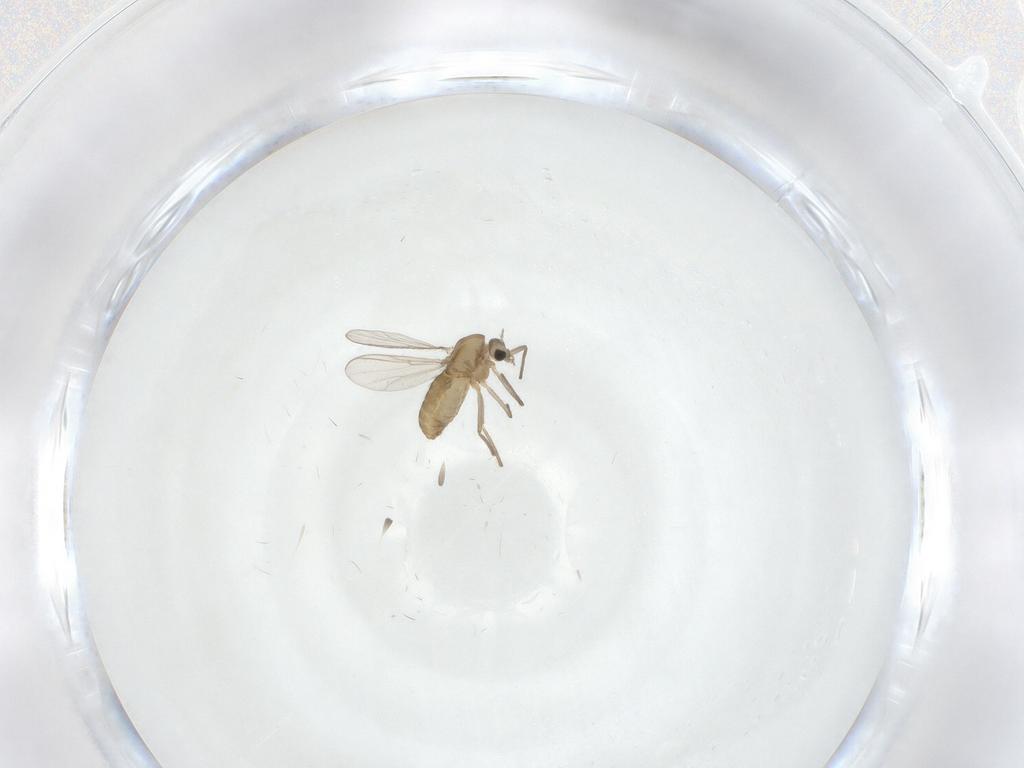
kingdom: Animalia
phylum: Arthropoda
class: Insecta
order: Diptera
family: Chironomidae
